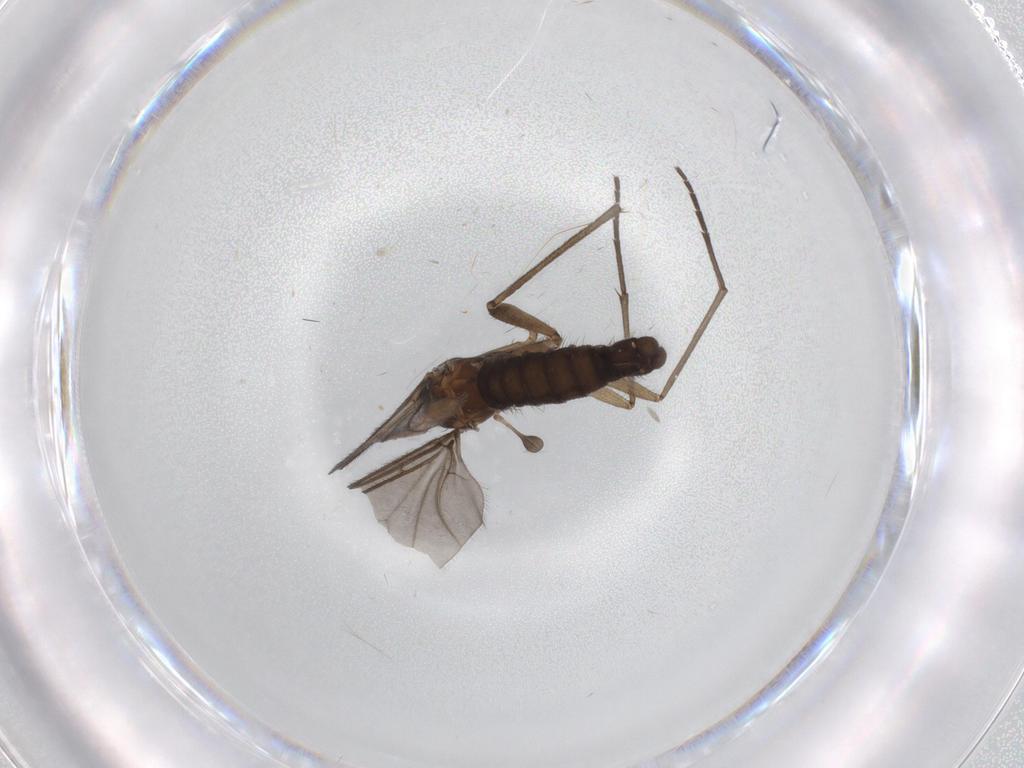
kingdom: Animalia
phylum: Arthropoda
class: Insecta
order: Diptera
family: Sciaridae
